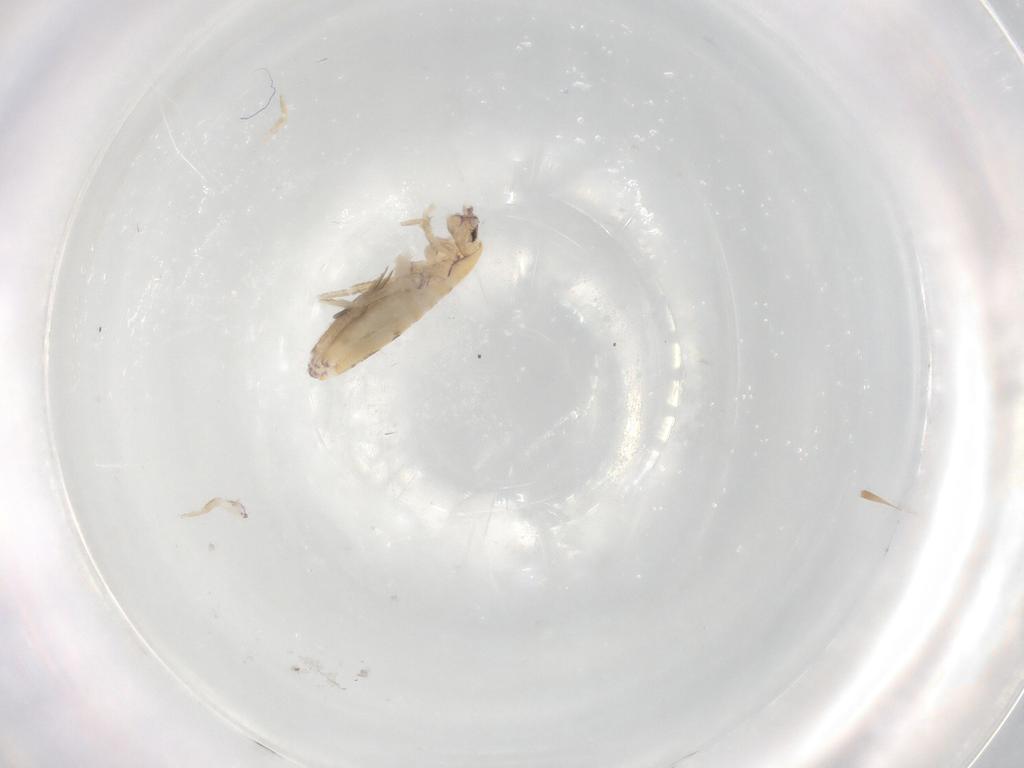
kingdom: Animalia
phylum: Arthropoda
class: Collembola
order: Entomobryomorpha
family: Entomobryidae
